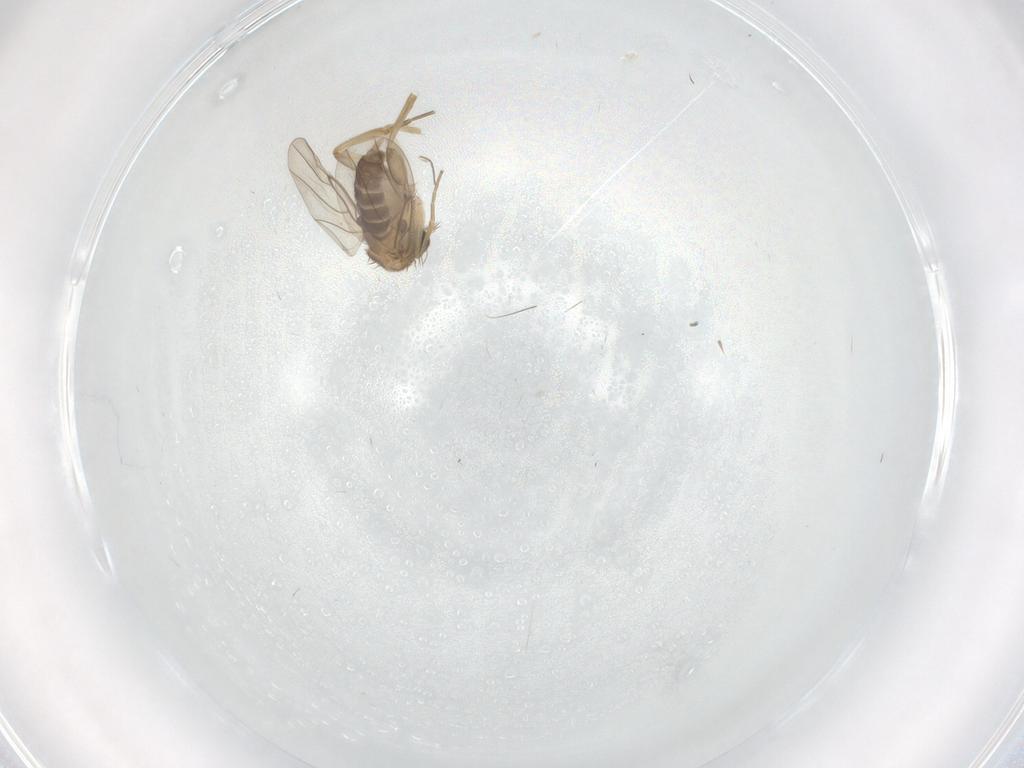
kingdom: Animalia
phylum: Arthropoda
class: Insecta
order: Diptera
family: Phoridae
